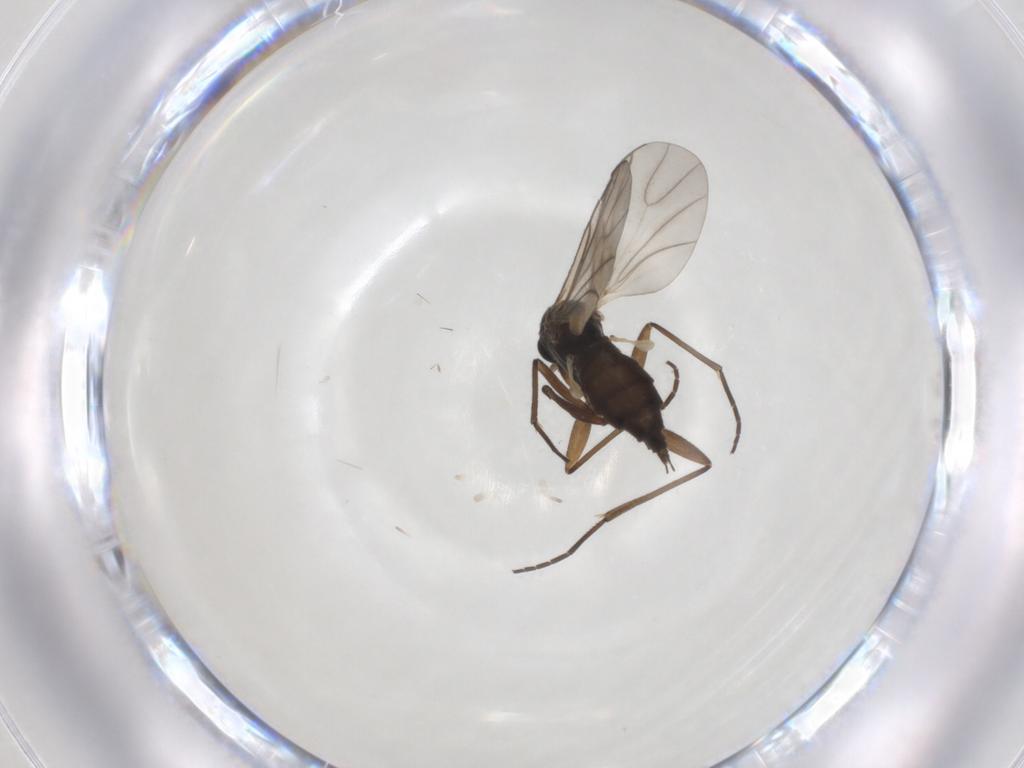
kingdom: Animalia
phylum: Arthropoda
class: Insecta
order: Diptera
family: Sciaridae
